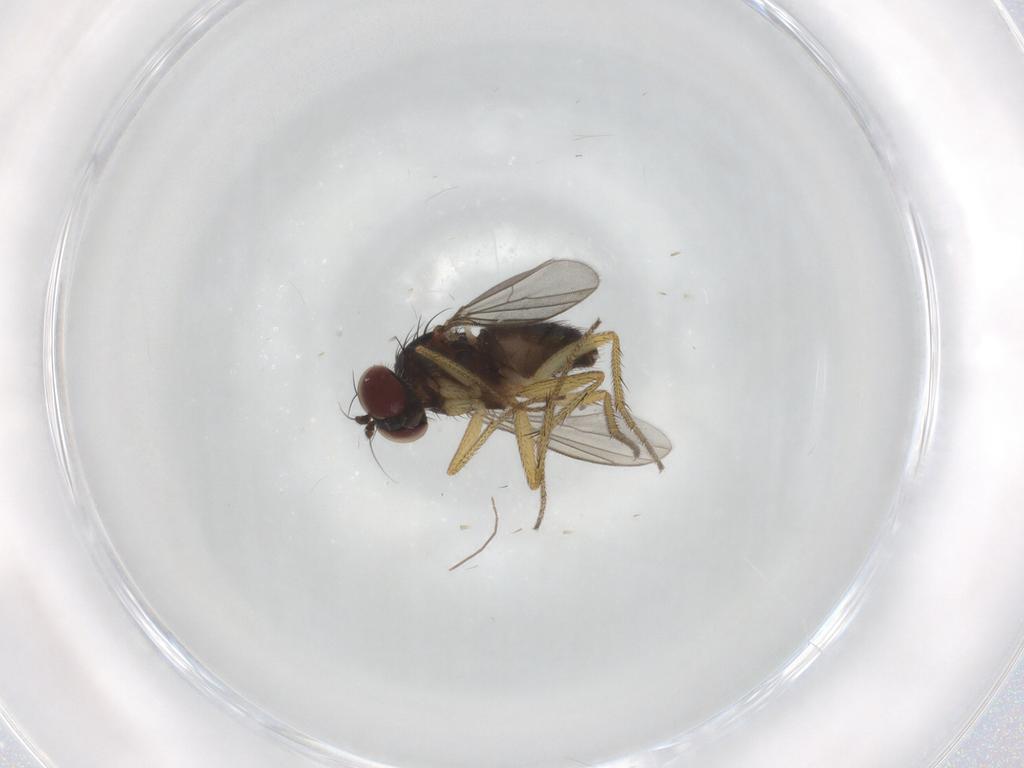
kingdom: Animalia
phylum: Arthropoda
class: Insecta
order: Diptera
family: Dolichopodidae
